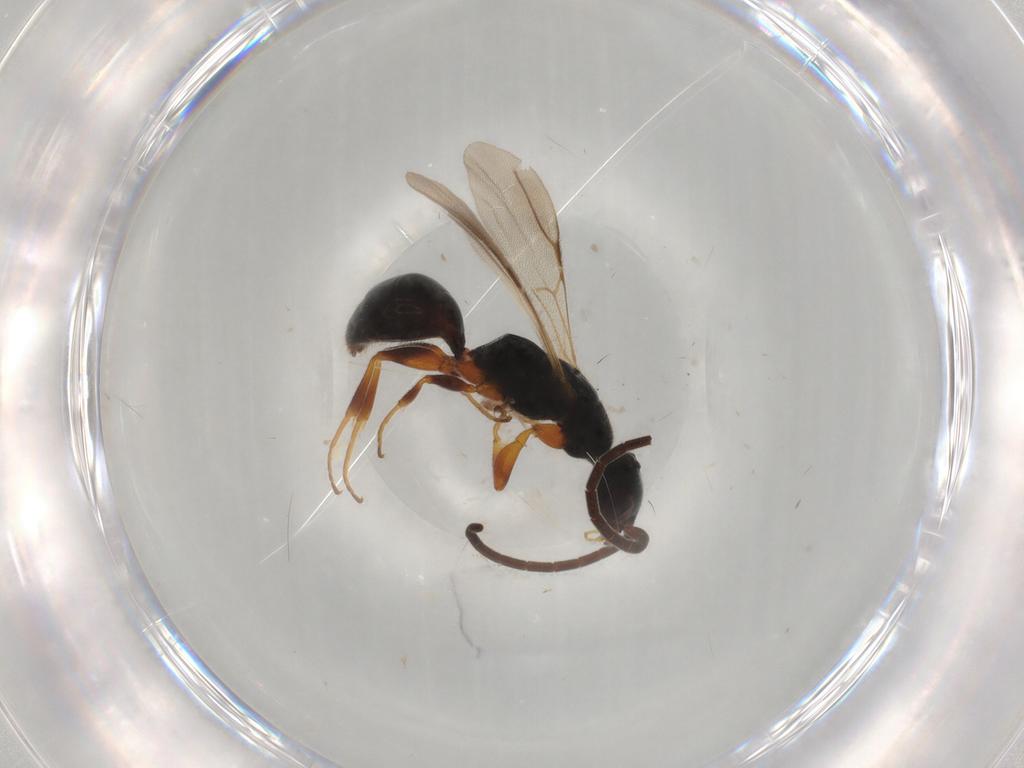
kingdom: Animalia
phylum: Arthropoda
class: Insecta
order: Hymenoptera
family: Bethylidae
